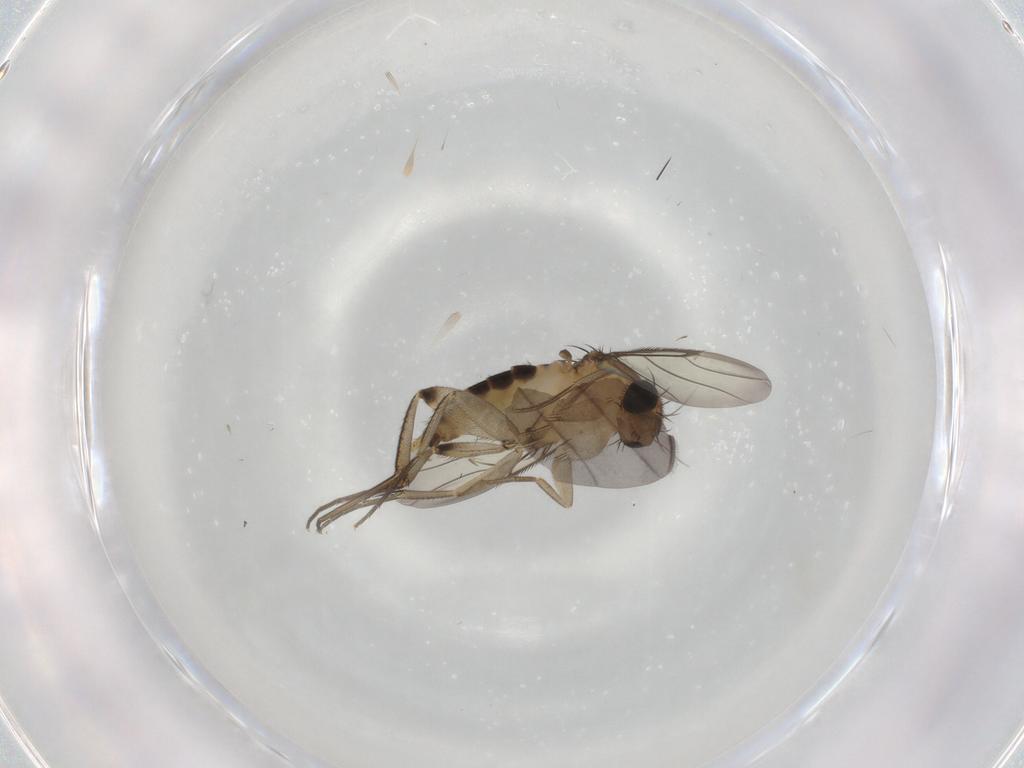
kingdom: Animalia
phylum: Arthropoda
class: Insecta
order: Diptera
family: Phoridae
